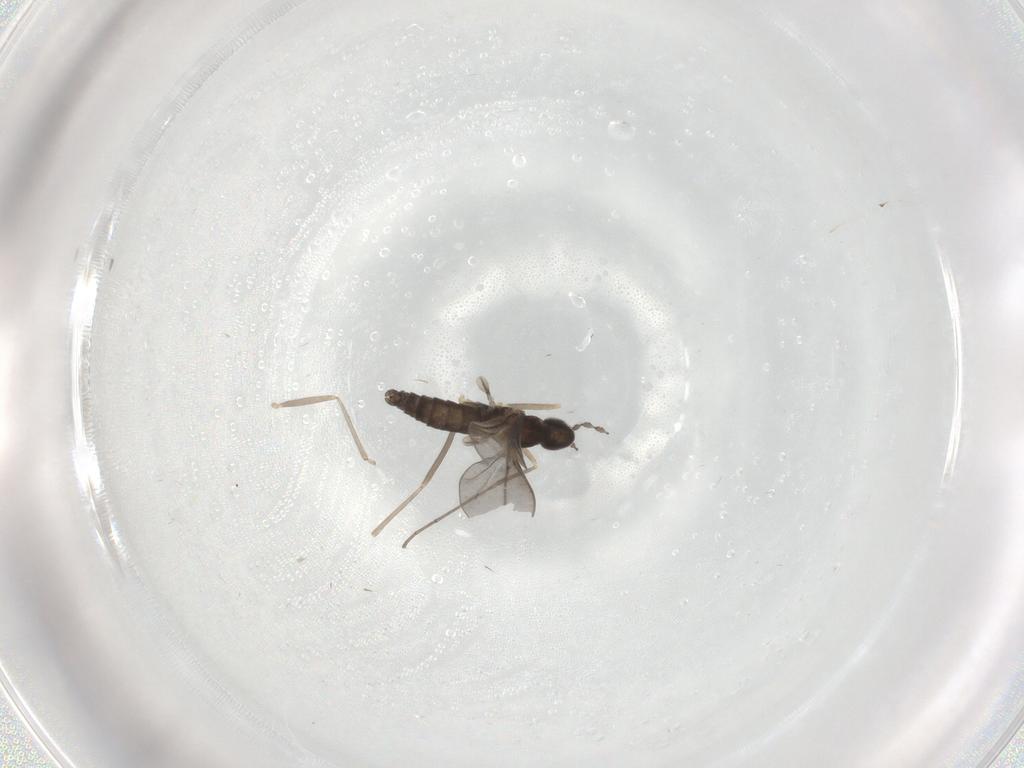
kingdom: Animalia
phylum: Arthropoda
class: Insecta
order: Diptera
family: Cecidomyiidae
